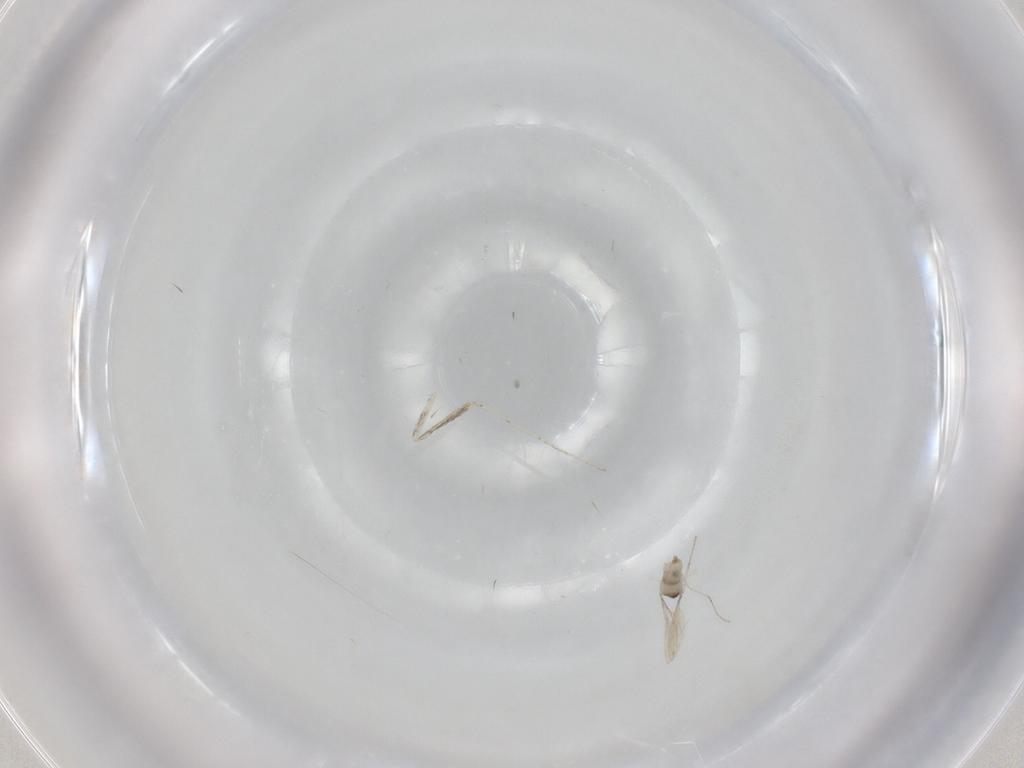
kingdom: Animalia
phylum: Arthropoda
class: Insecta
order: Diptera
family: Cecidomyiidae
